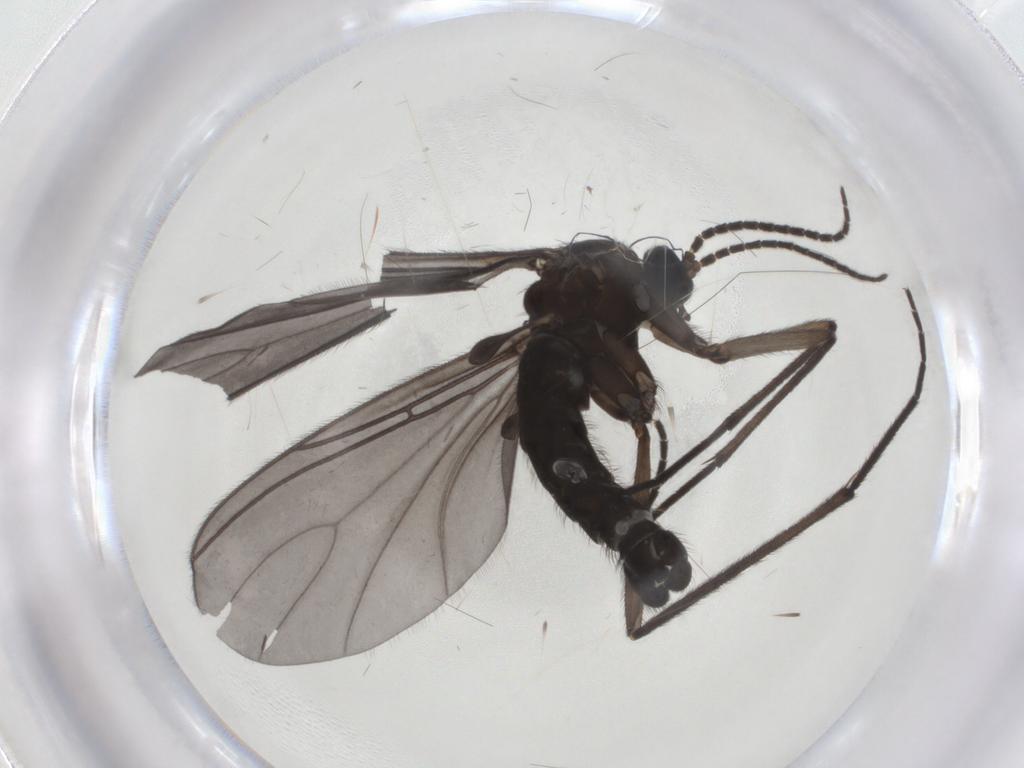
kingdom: Animalia
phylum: Arthropoda
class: Insecta
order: Diptera
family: Sciaridae
